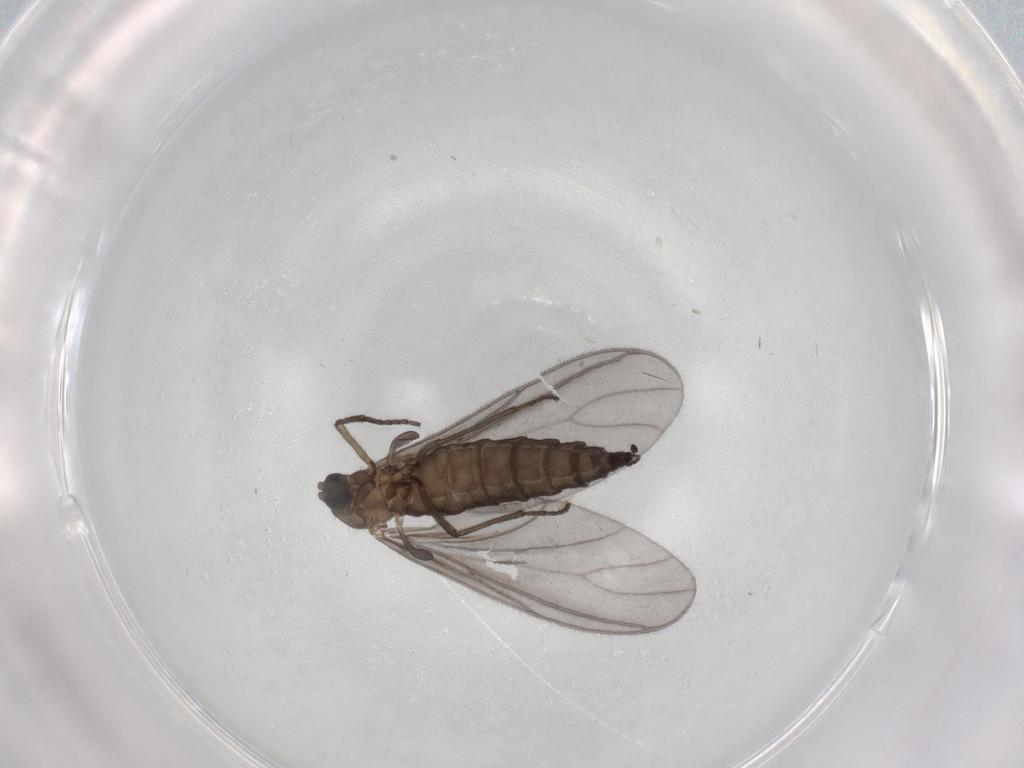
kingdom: Animalia
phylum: Arthropoda
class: Insecta
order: Diptera
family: Sciaridae
